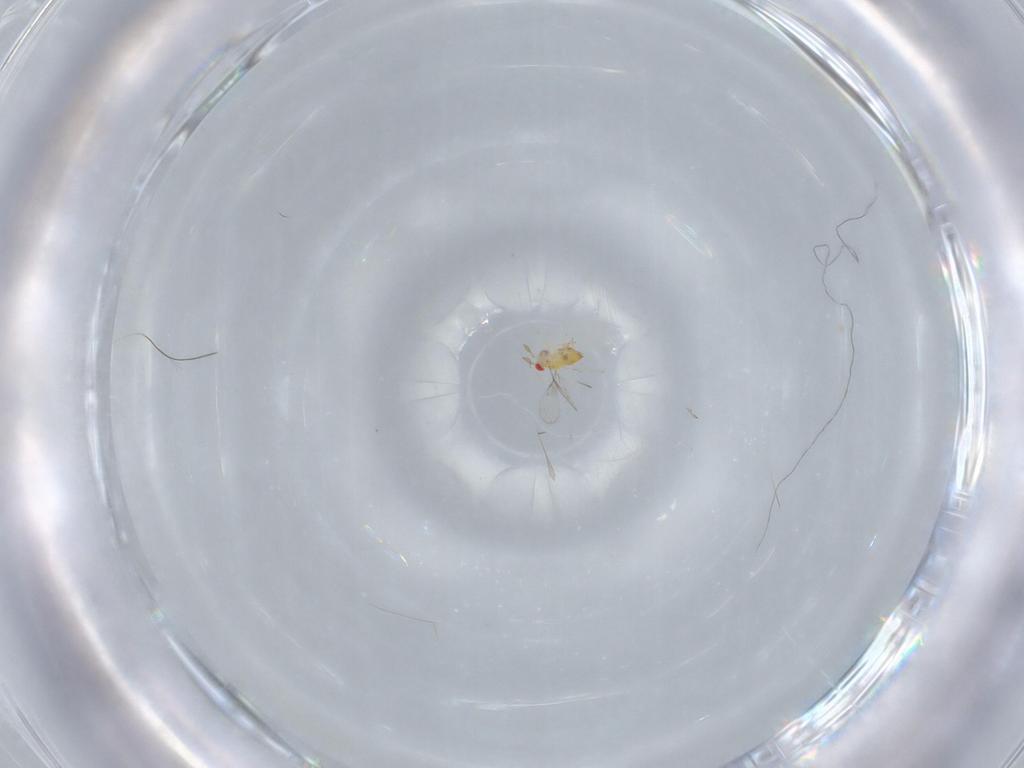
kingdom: Animalia
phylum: Arthropoda
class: Insecta
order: Hymenoptera
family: Trichogrammatidae
